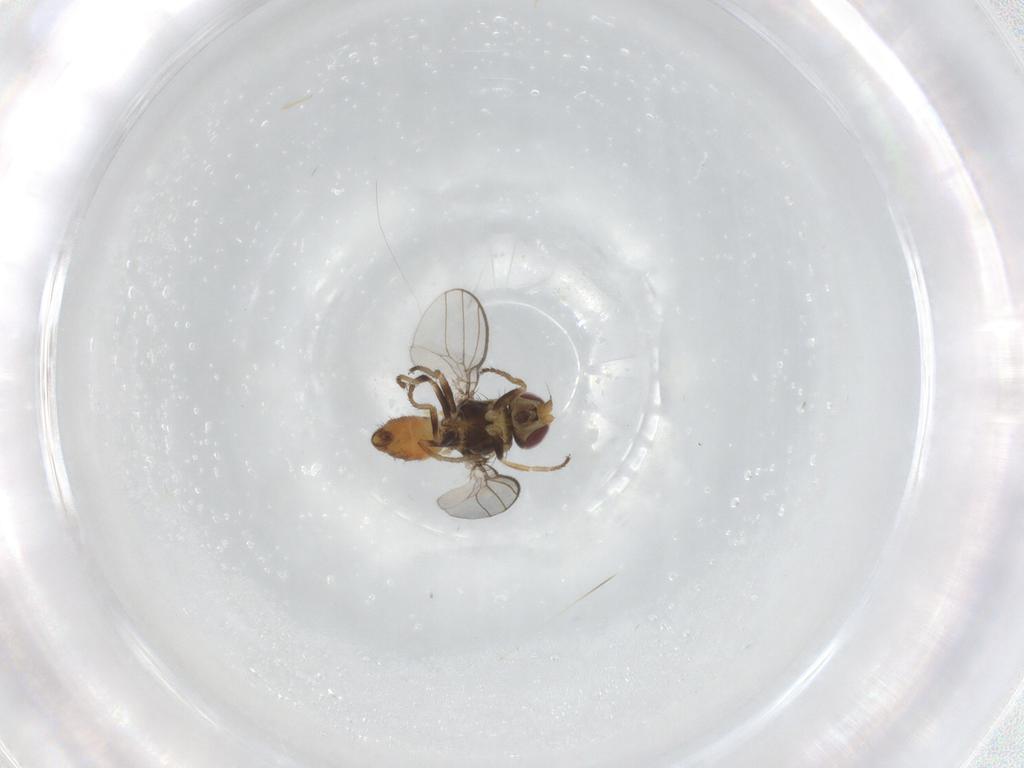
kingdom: Animalia
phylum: Arthropoda
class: Insecta
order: Diptera
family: Chloropidae
